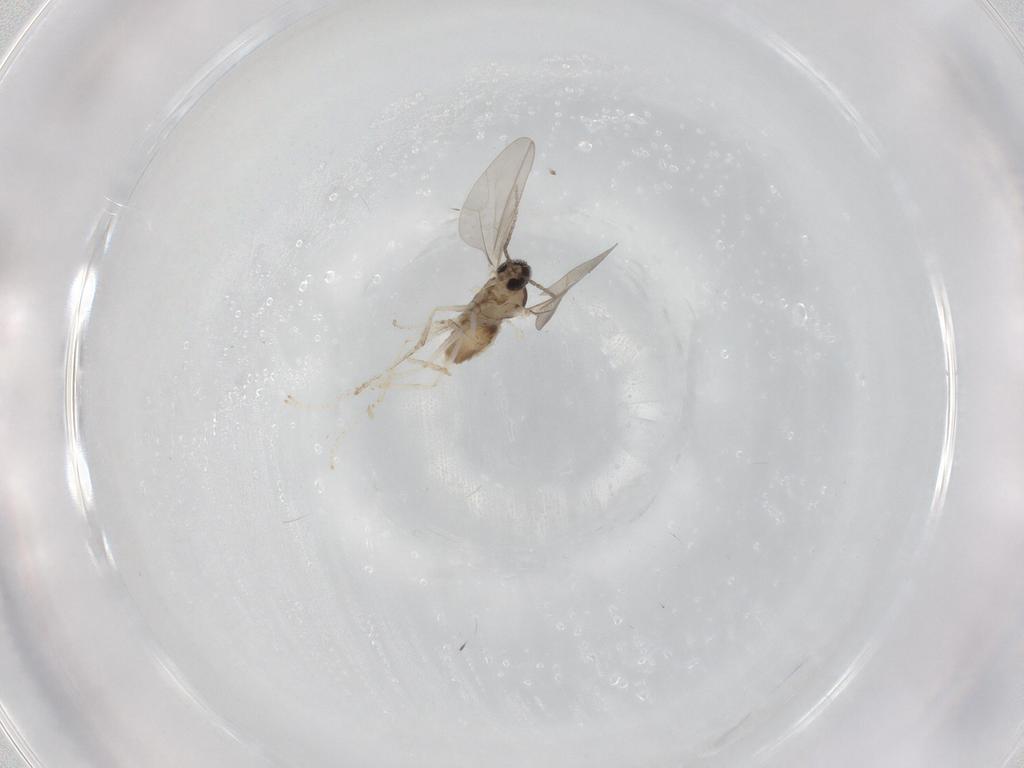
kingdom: Animalia
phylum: Arthropoda
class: Insecta
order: Diptera
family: Cecidomyiidae
